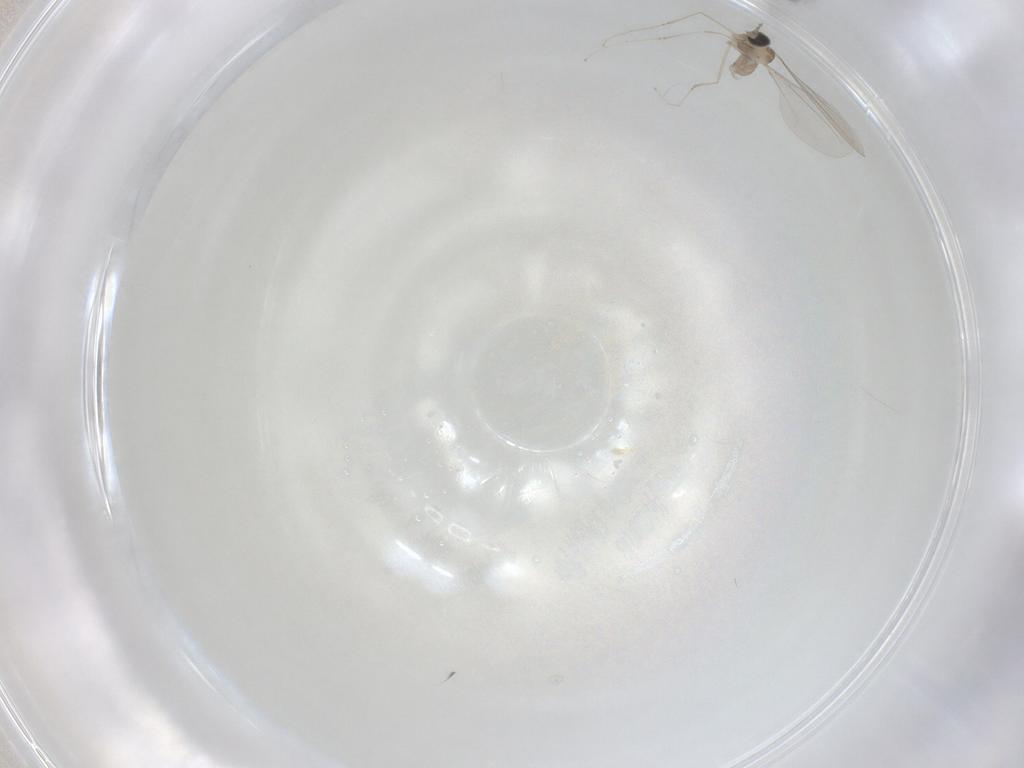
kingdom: Animalia
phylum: Arthropoda
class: Insecta
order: Diptera
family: Cecidomyiidae
